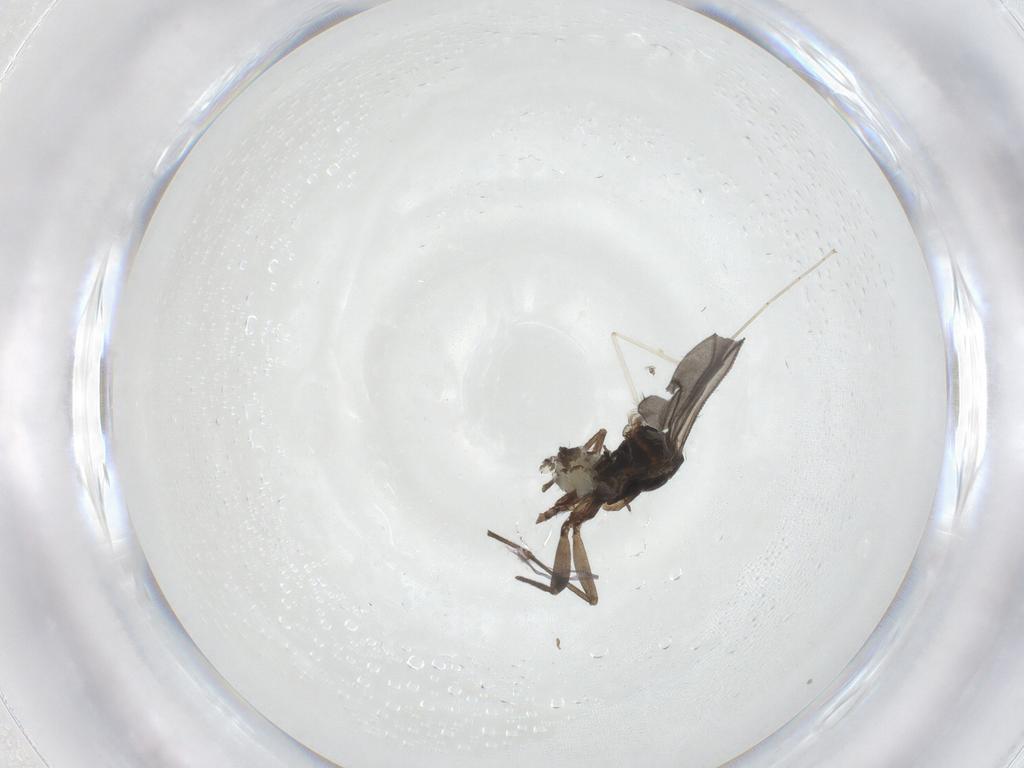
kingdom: Animalia
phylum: Arthropoda
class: Insecta
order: Diptera
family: Sciaridae
